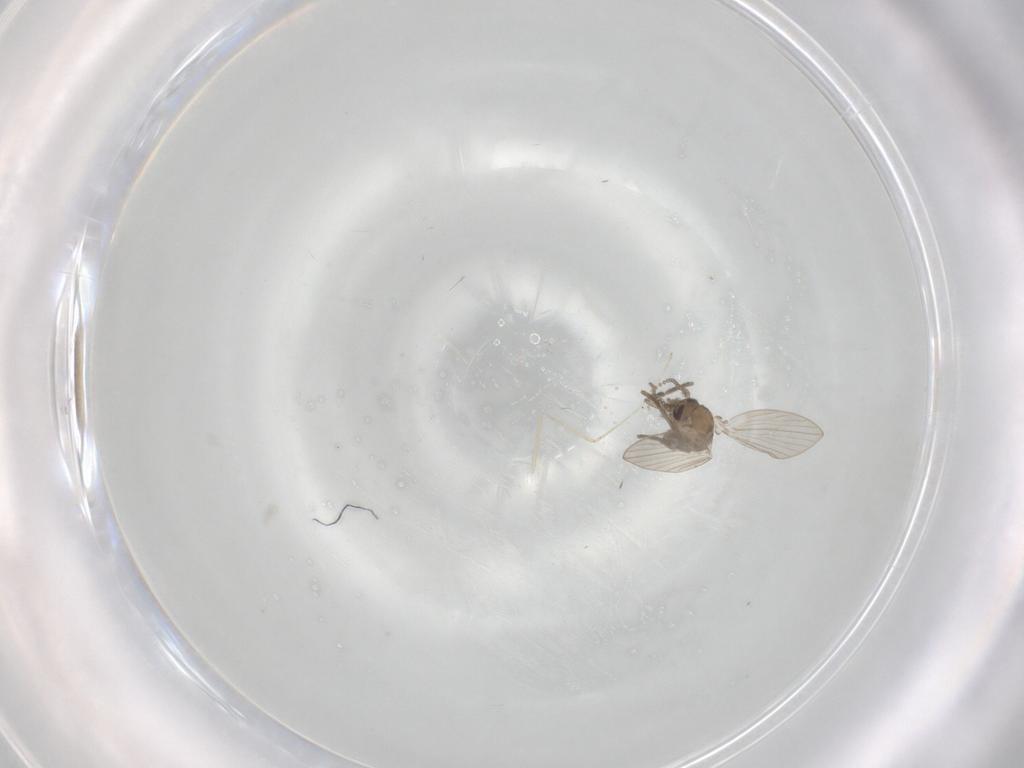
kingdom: Animalia
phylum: Arthropoda
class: Insecta
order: Diptera
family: Psychodidae
